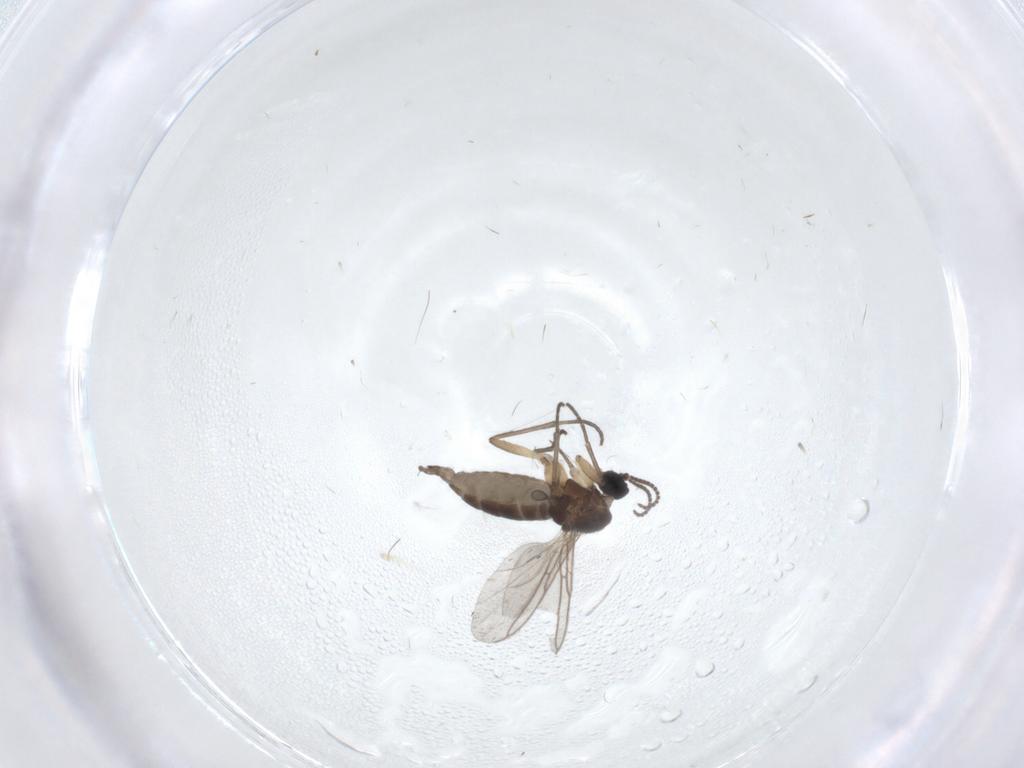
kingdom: Animalia
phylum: Arthropoda
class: Insecta
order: Diptera
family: Sciaridae
